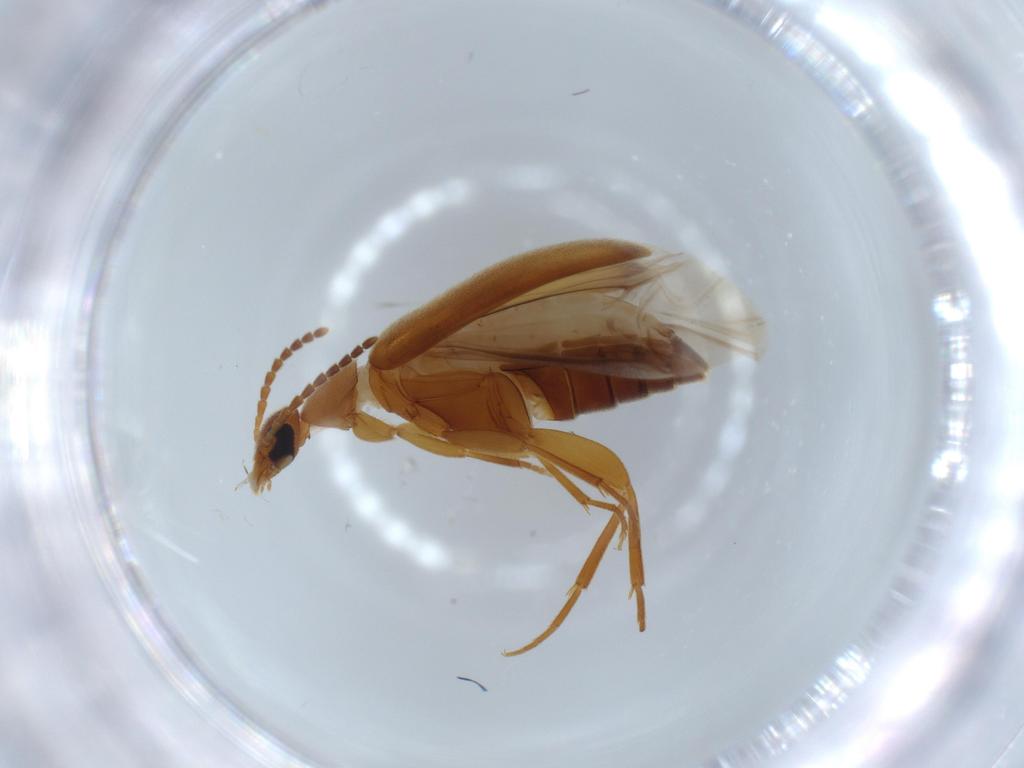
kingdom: Animalia
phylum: Arthropoda
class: Insecta
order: Coleoptera
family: Scraptiidae
